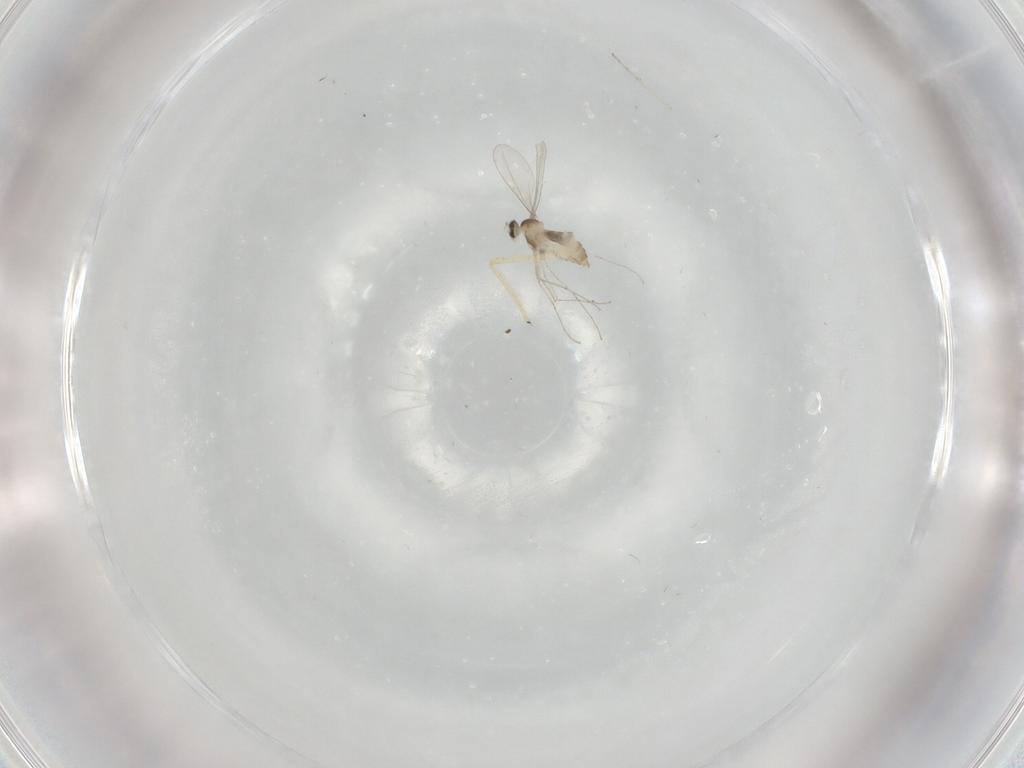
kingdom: Animalia
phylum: Arthropoda
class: Insecta
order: Diptera
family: Cecidomyiidae
